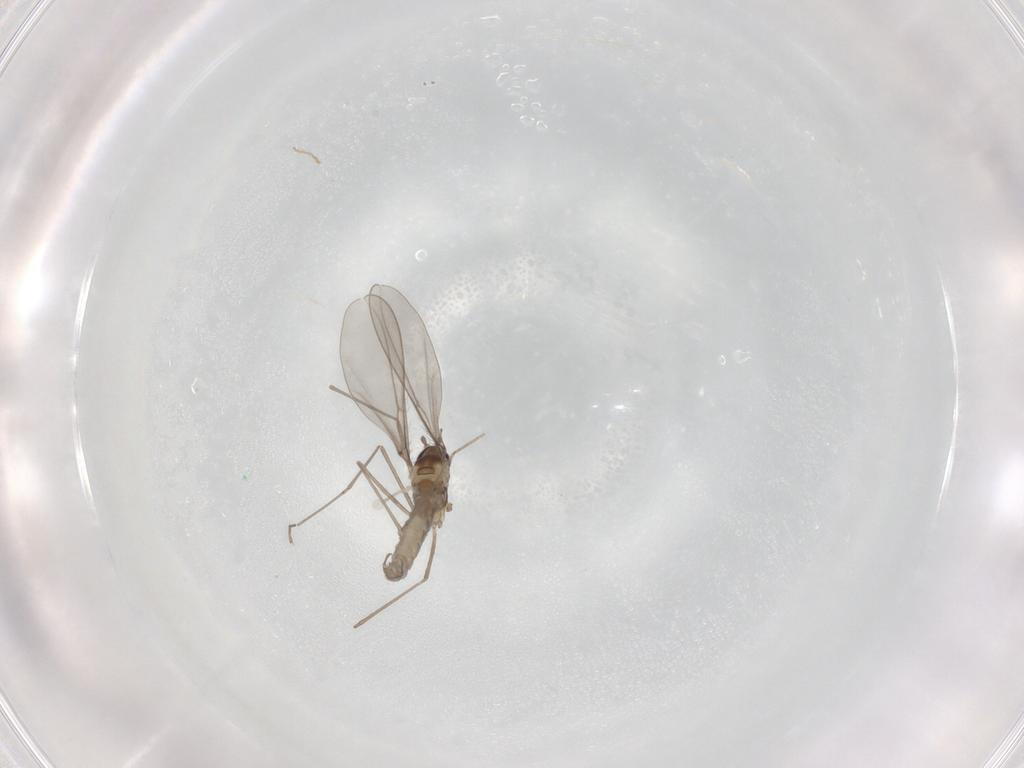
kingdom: Animalia
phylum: Arthropoda
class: Insecta
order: Diptera
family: Cecidomyiidae
